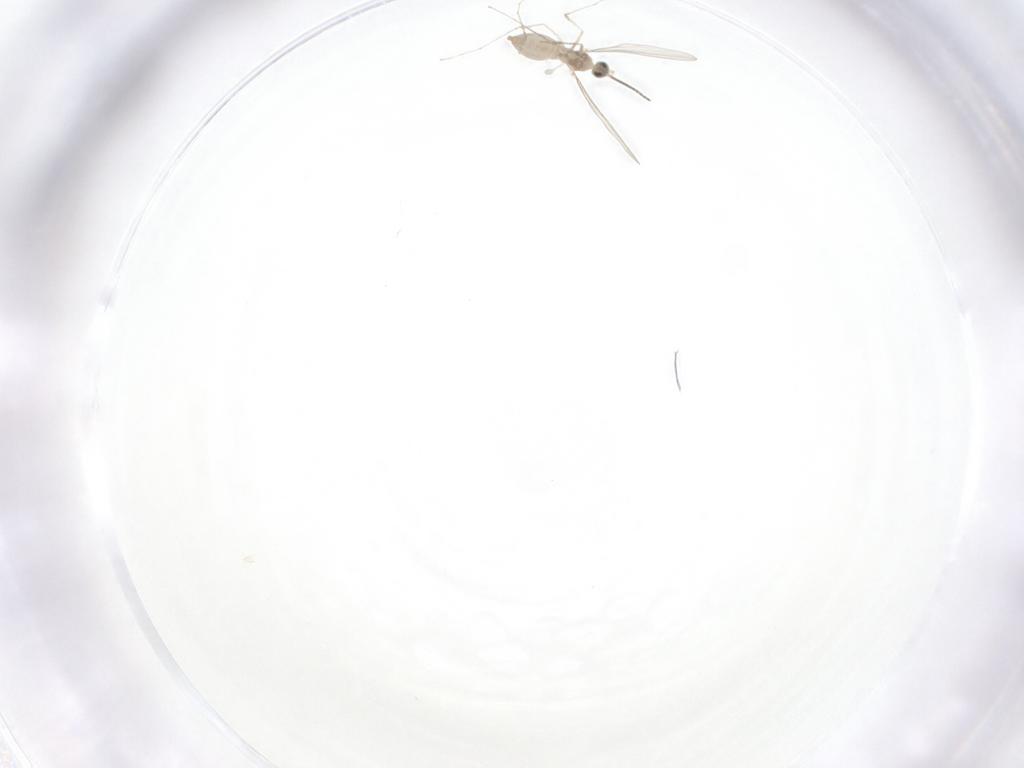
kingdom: Animalia
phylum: Arthropoda
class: Insecta
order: Diptera
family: Cecidomyiidae
